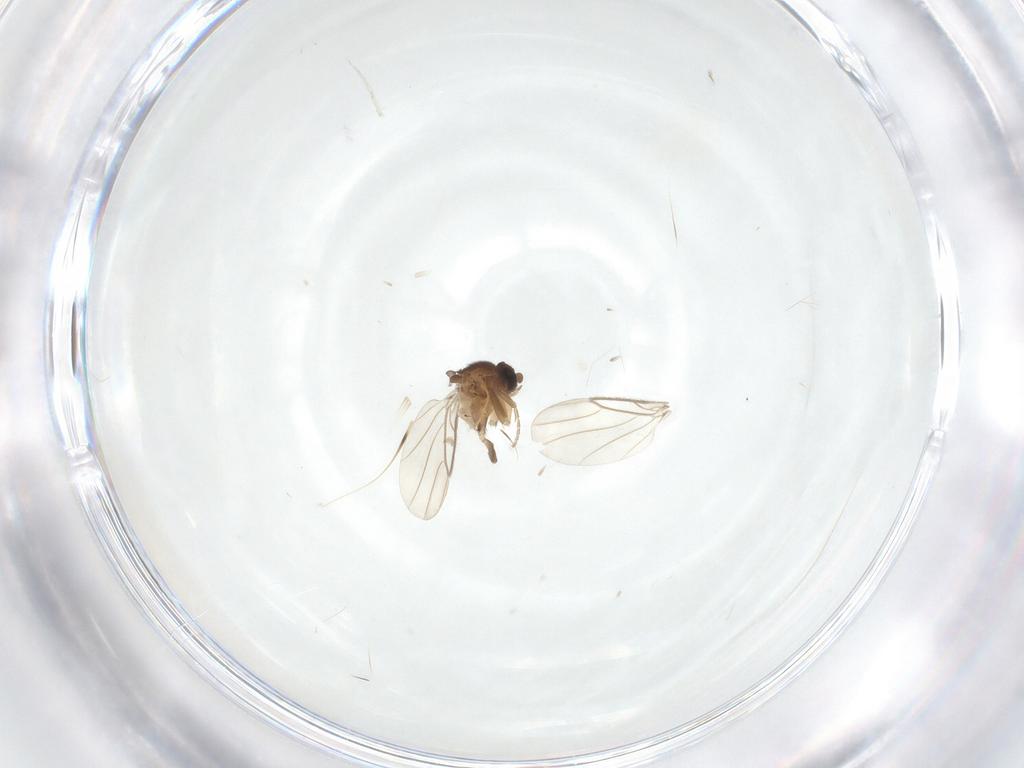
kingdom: Animalia
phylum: Arthropoda
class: Insecta
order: Diptera
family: Phoridae
